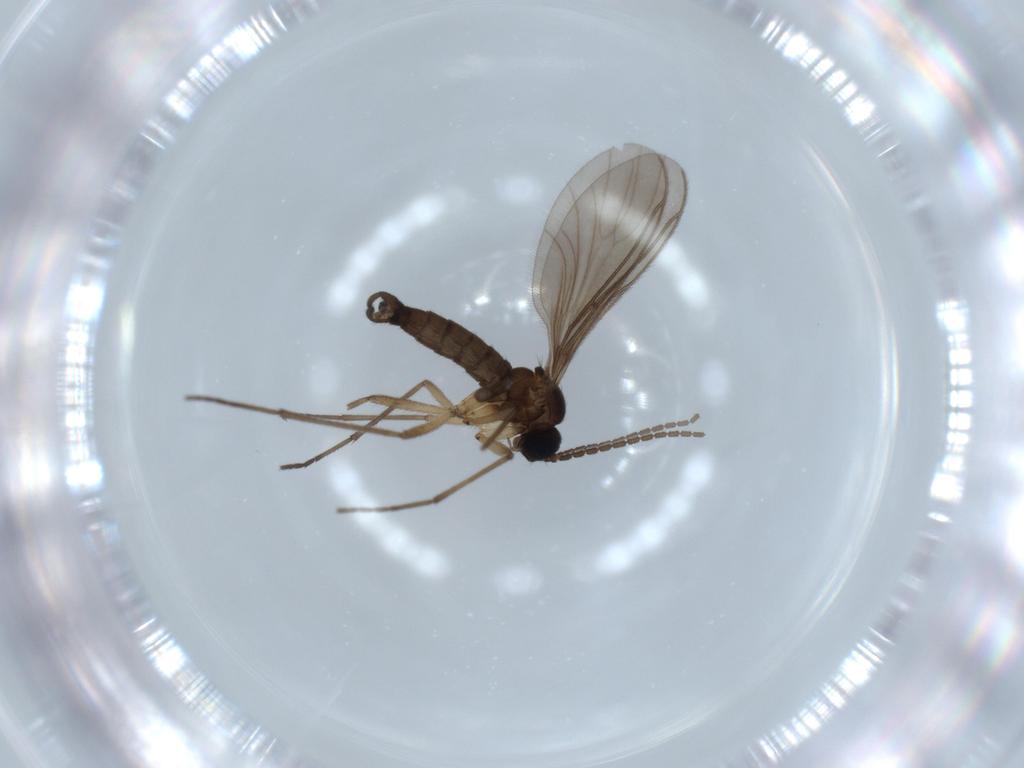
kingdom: Animalia
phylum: Arthropoda
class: Insecta
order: Diptera
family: Sciaridae
